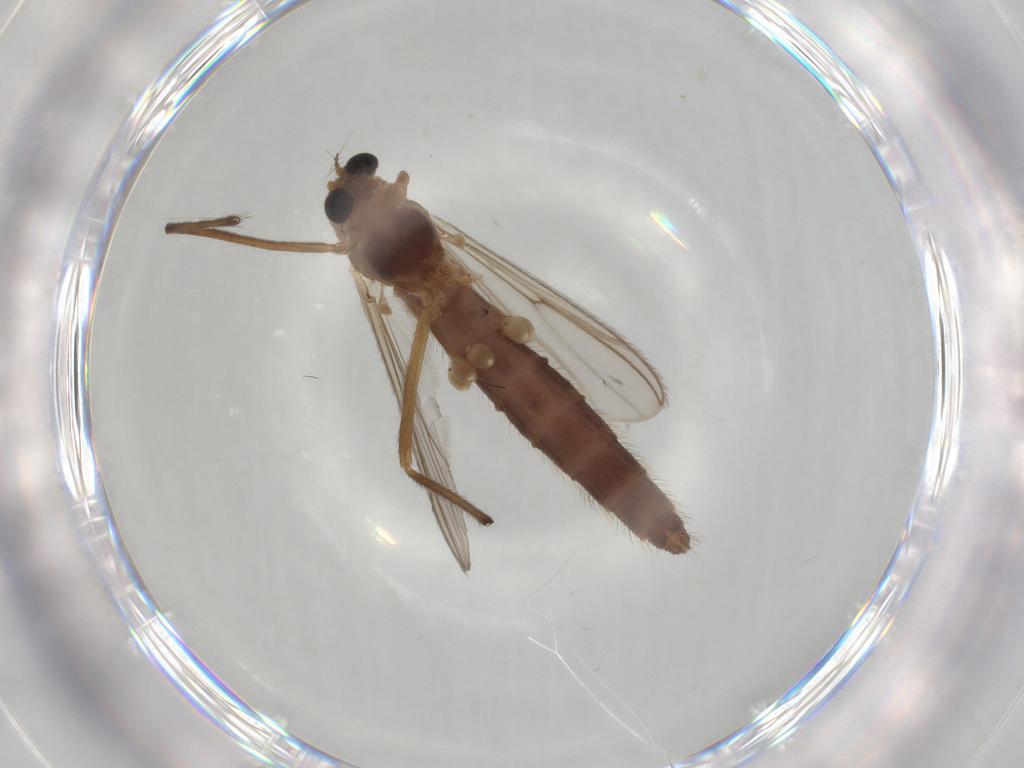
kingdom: Animalia
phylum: Arthropoda
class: Insecta
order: Diptera
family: Chironomidae
